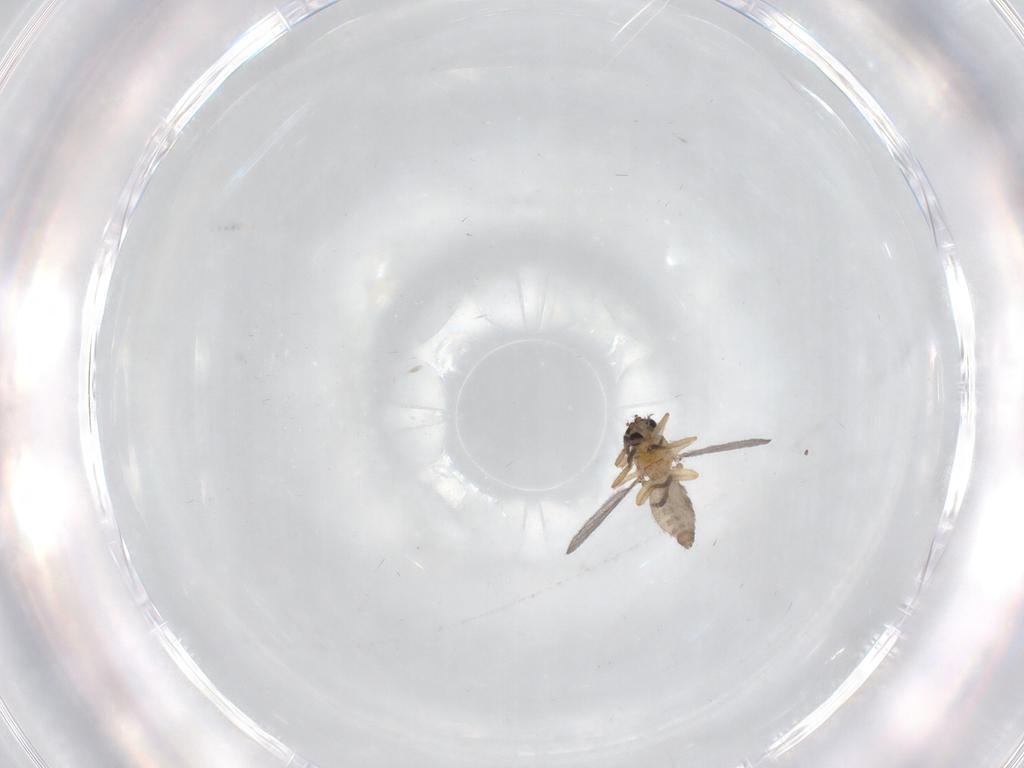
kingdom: Animalia
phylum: Arthropoda
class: Insecta
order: Diptera
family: Ceratopogonidae
